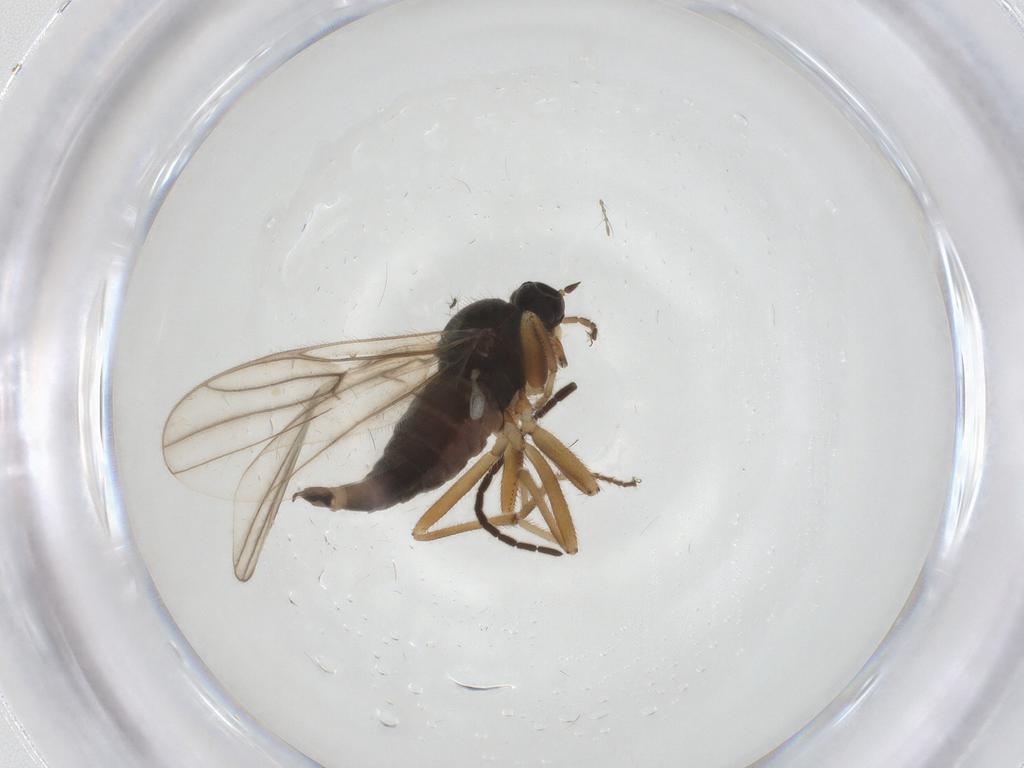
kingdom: Animalia
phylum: Arthropoda
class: Insecta
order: Diptera
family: Hybotidae
